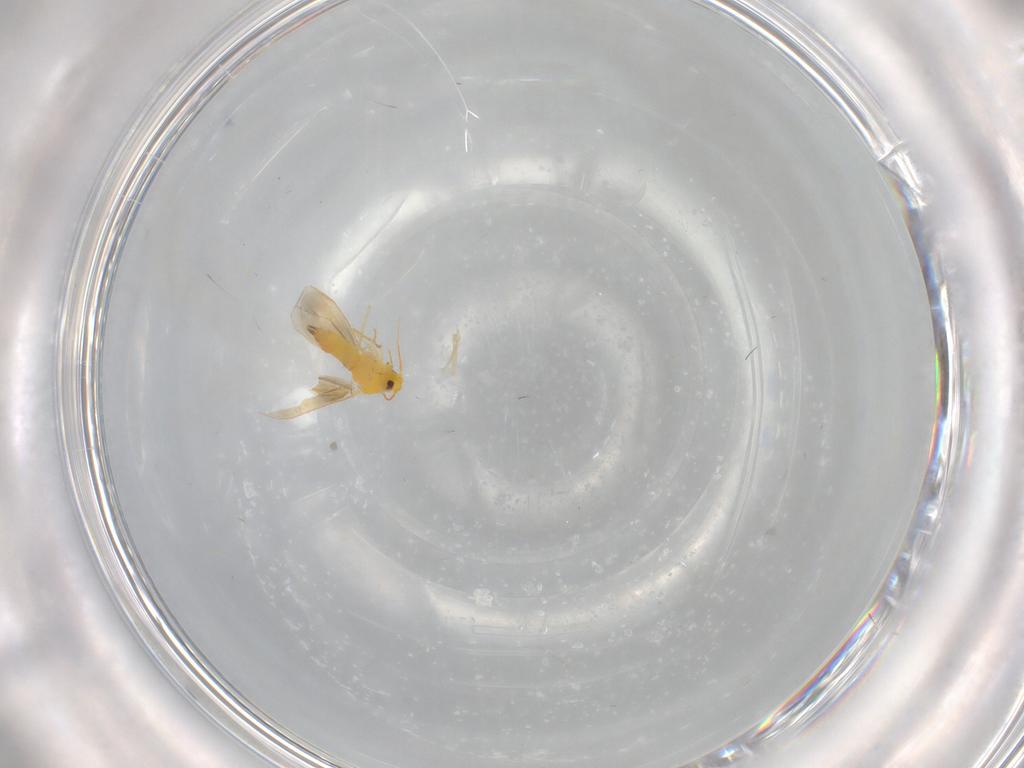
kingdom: Animalia
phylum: Arthropoda
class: Insecta
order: Hemiptera
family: Aleyrodidae
